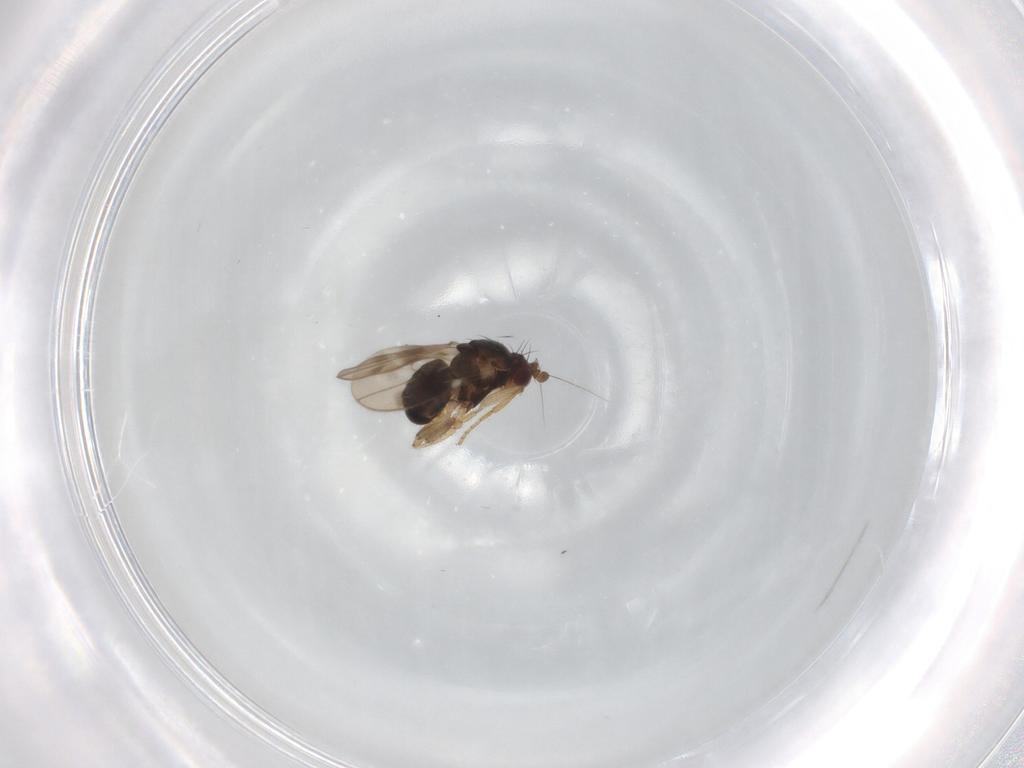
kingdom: Animalia
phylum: Arthropoda
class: Insecta
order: Diptera
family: Sphaeroceridae
